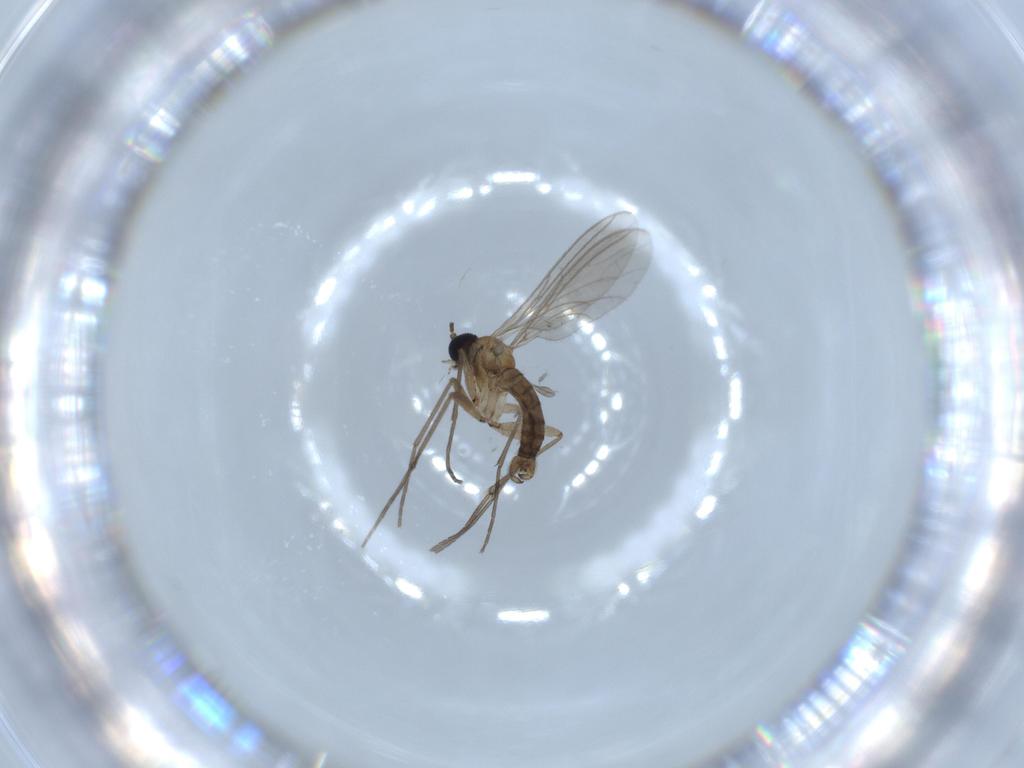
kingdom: Animalia
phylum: Arthropoda
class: Insecta
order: Diptera
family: Sciaridae
